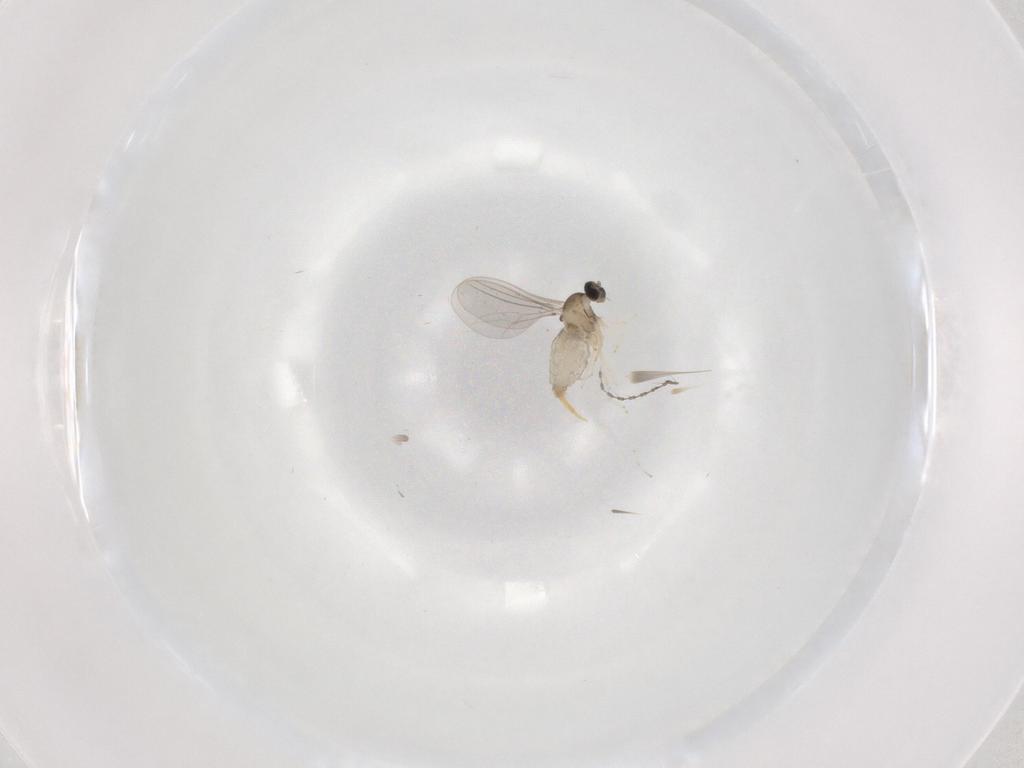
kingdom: Animalia
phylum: Arthropoda
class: Insecta
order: Diptera
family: Cecidomyiidae
